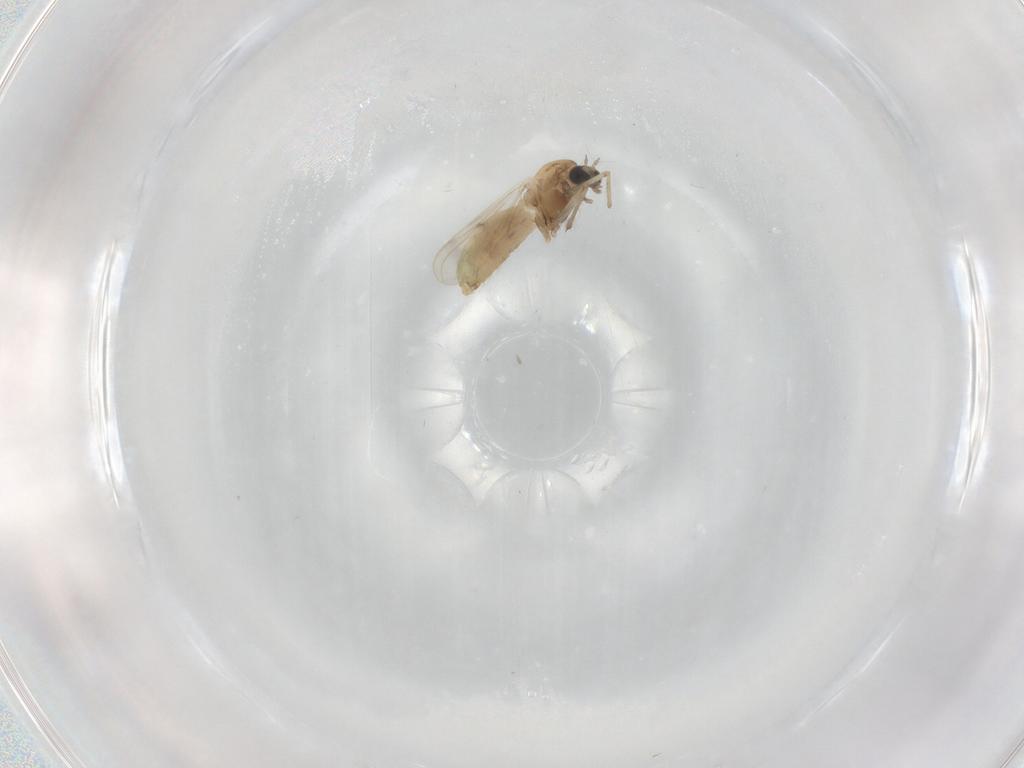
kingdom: Animalia
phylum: Arthropoda
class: Insecta
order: Diptera
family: Chironomidae
